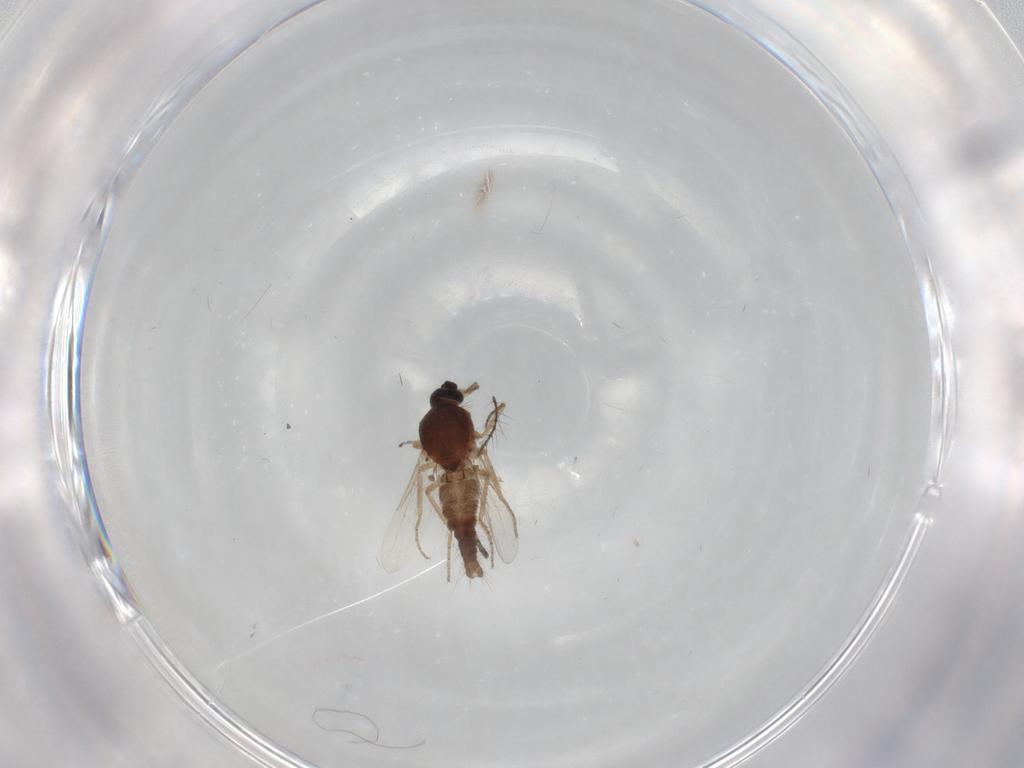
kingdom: Animalia
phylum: Arthropoda
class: Insecta
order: Diptera
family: Ceratopogonidae
